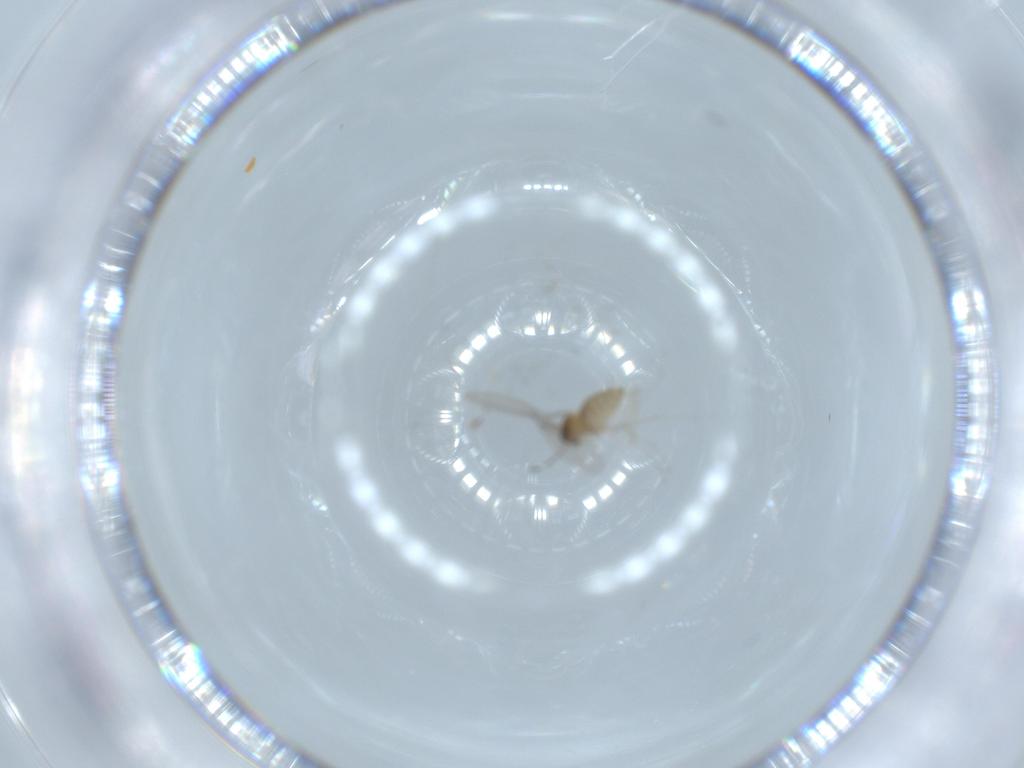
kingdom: Animalia
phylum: Arthropoda
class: Insecta
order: Diptera
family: Cecidomyiidae
